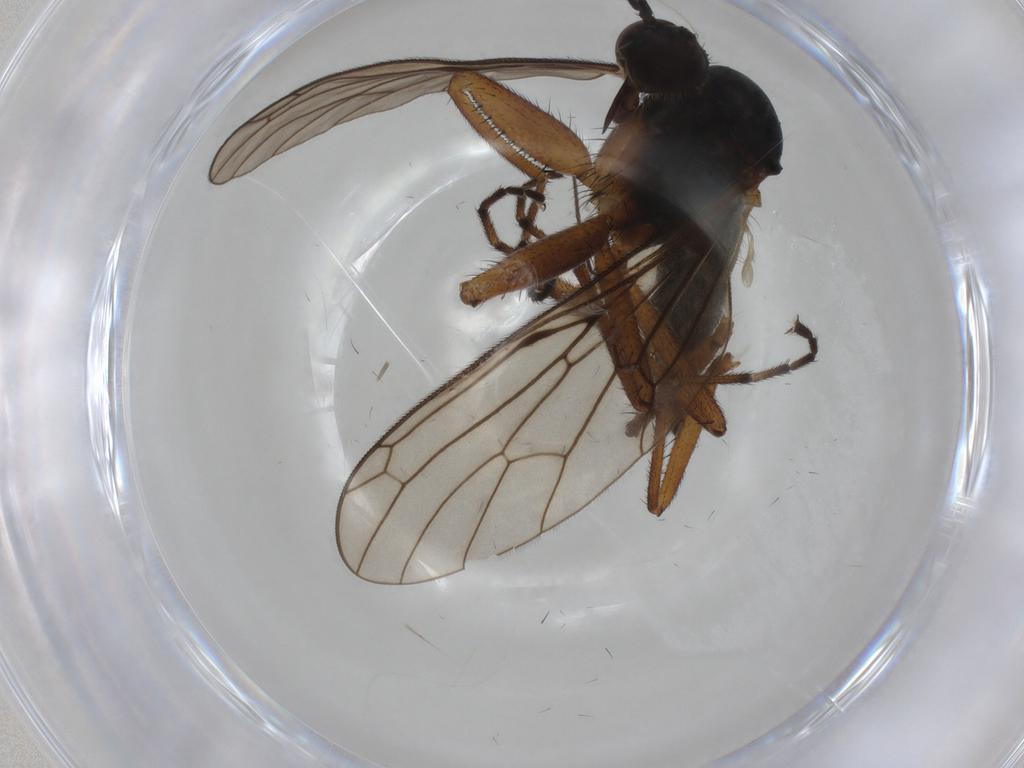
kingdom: Animalia
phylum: Arthropoda
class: Insecta
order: Diptera
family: Empididae
